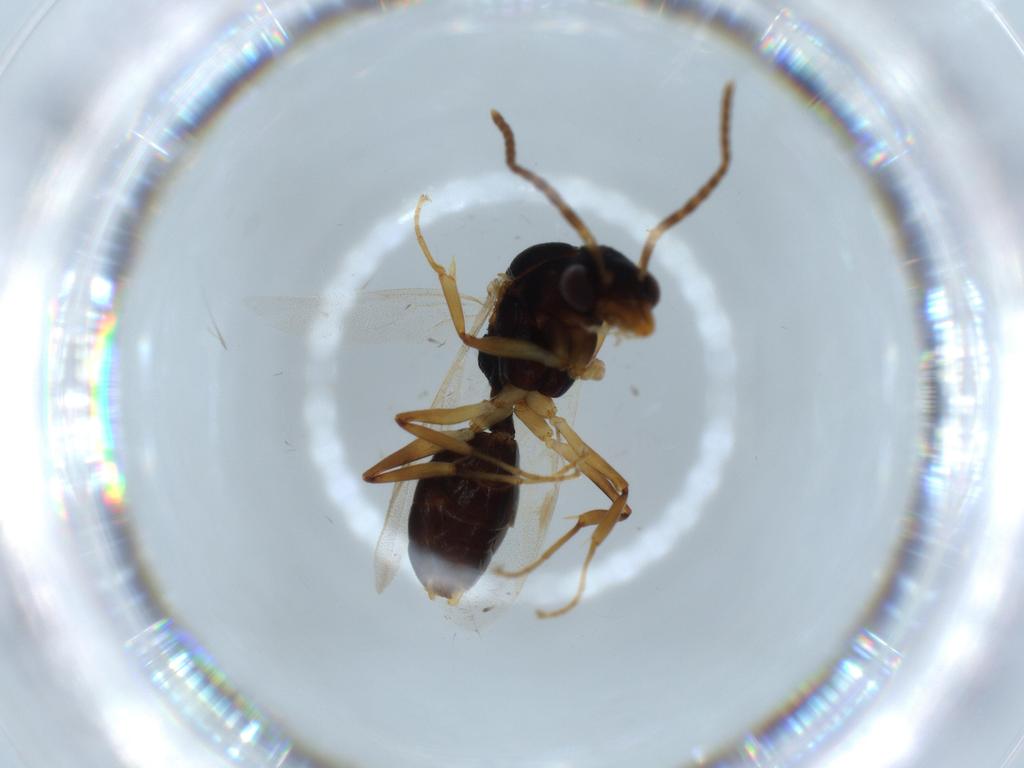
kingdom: Animalia
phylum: Arthropoda
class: Insecta
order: Hymenoptera
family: Formicidae
